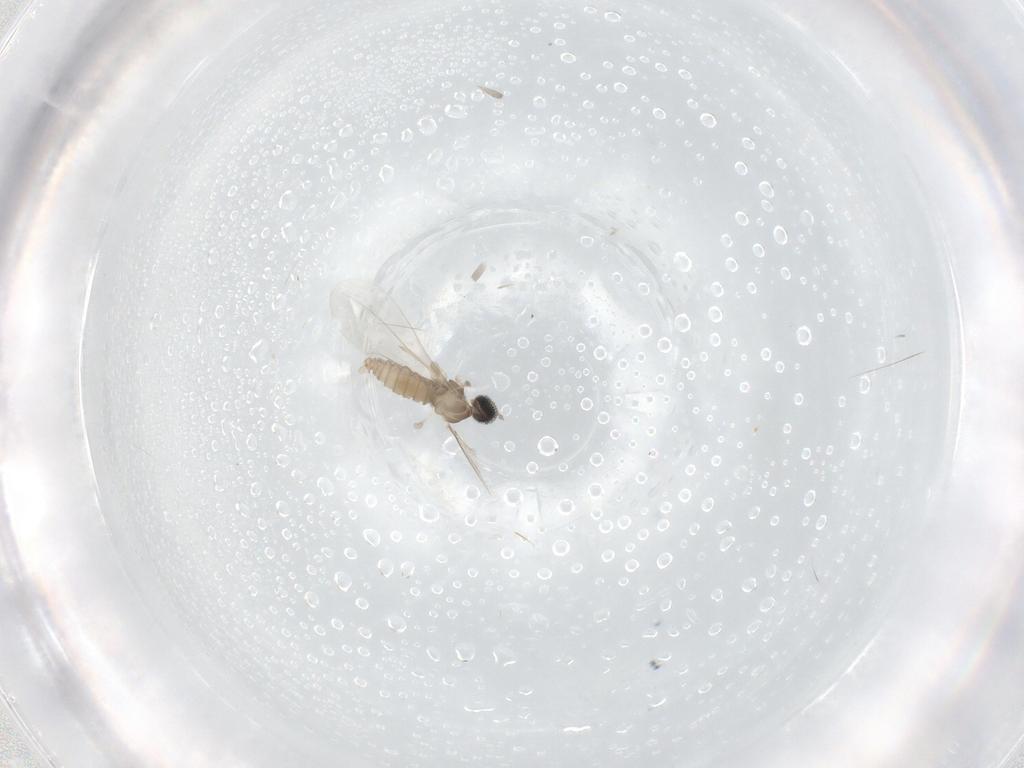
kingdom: Animalia
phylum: Arthropoda
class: Insecta
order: Diptera
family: Cecidomyiidae
